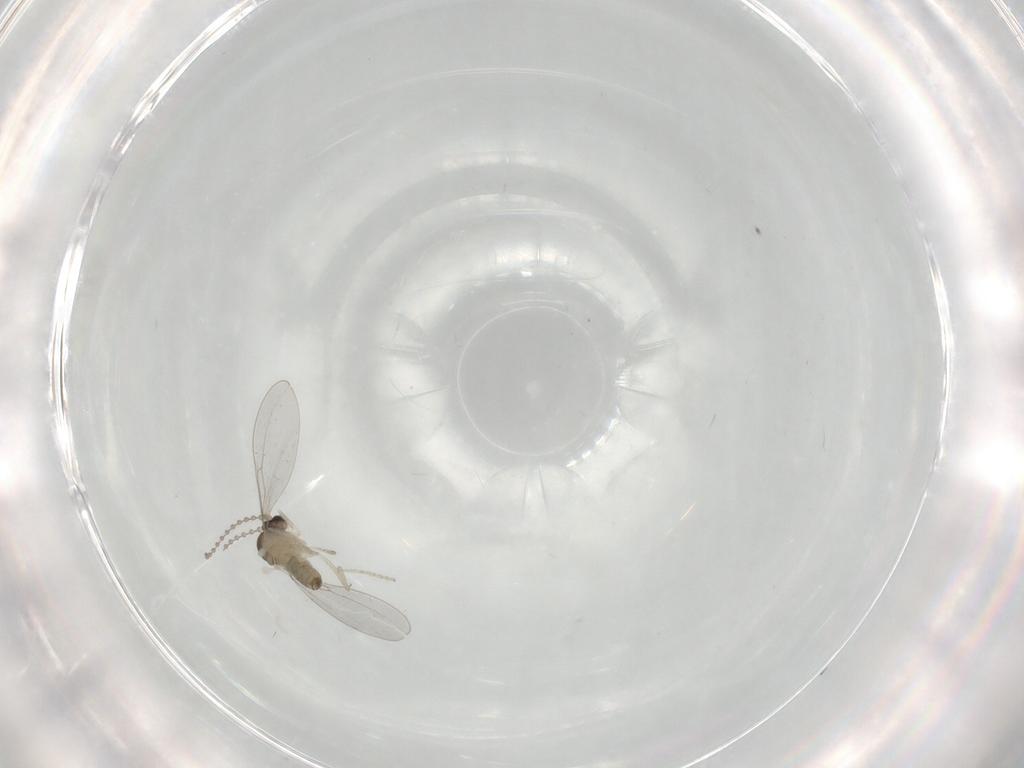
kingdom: Animalia
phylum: Arthropoda
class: Insecta
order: Diptera
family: Cecidomyiidae
